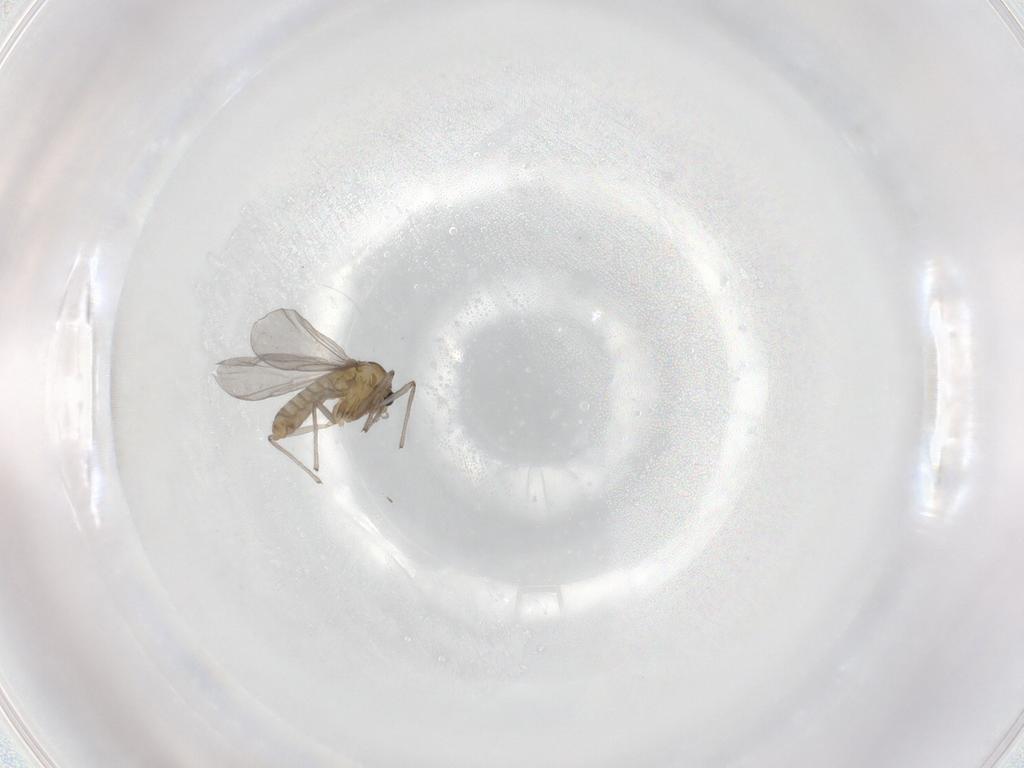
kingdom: Animalia
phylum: Arthropoda
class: Insecta
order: Diptera
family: Chironomidae
